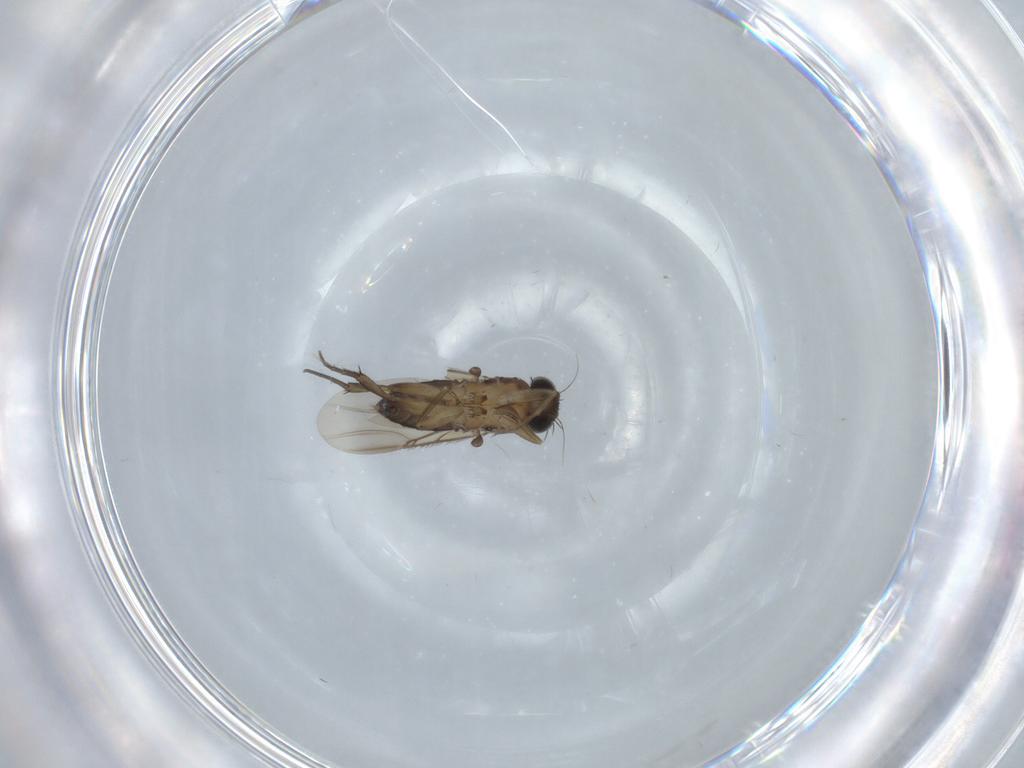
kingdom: Animalia
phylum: Arthropoda
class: Insecta
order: Diptera
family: Phoridae
